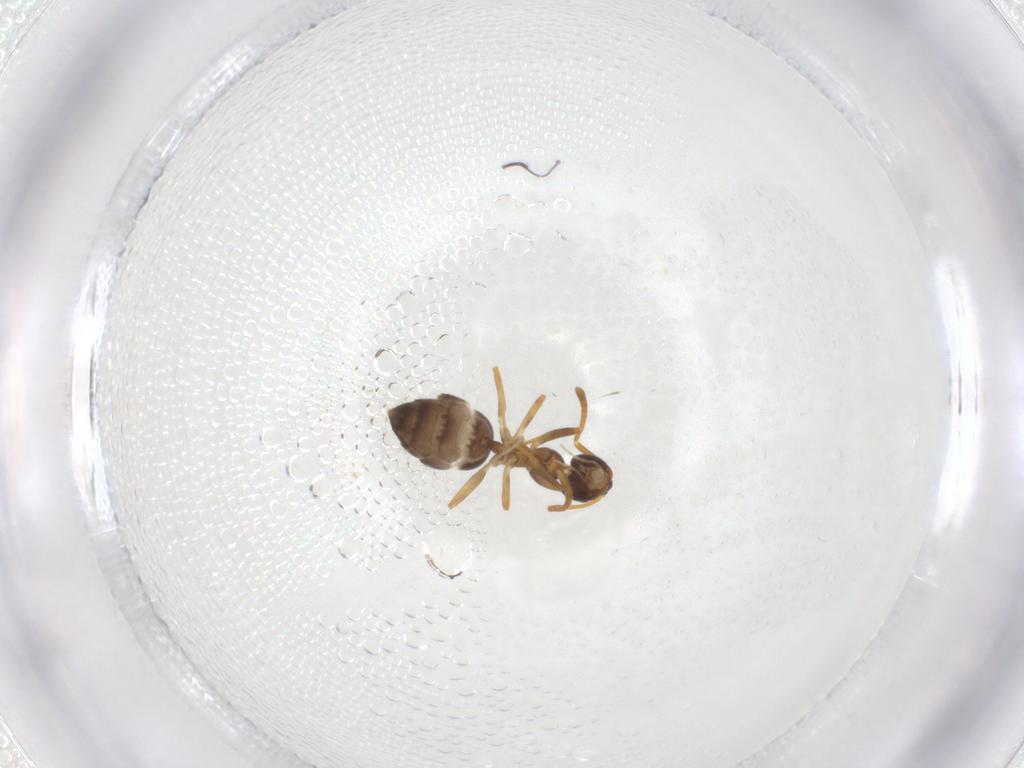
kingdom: Animalia
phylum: Arthropoda
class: Insecta
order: Hymenoptera
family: Formicidae
